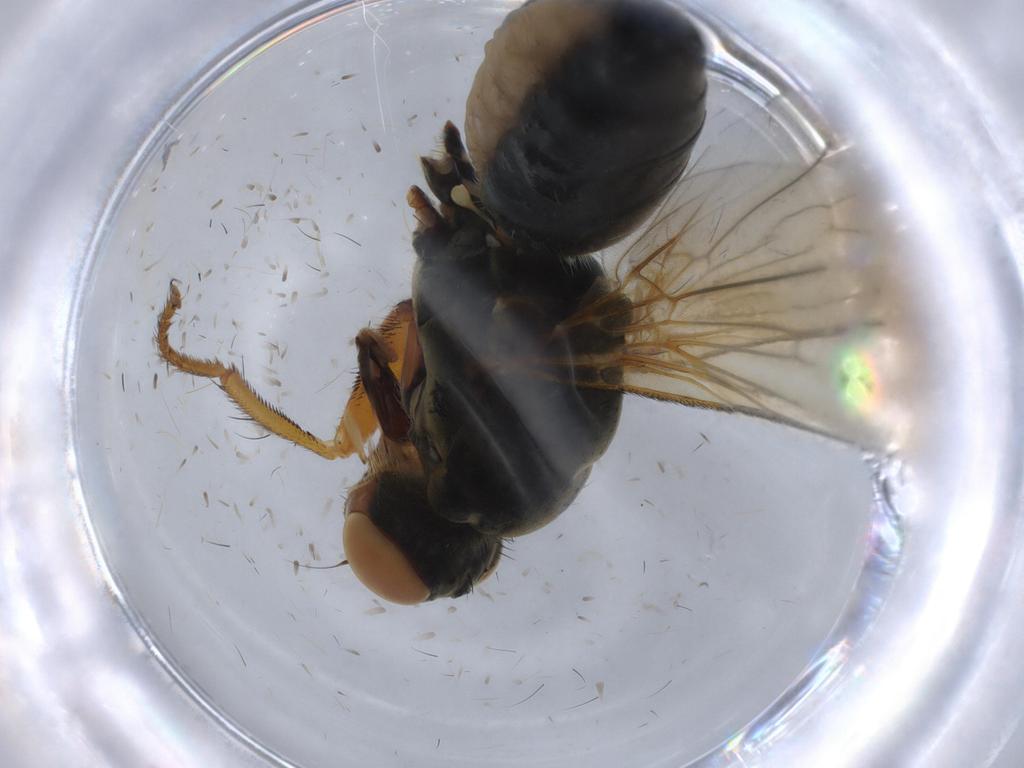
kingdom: Animalia
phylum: Arthropoda
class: Insecta
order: Diptera
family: Chironomidae
